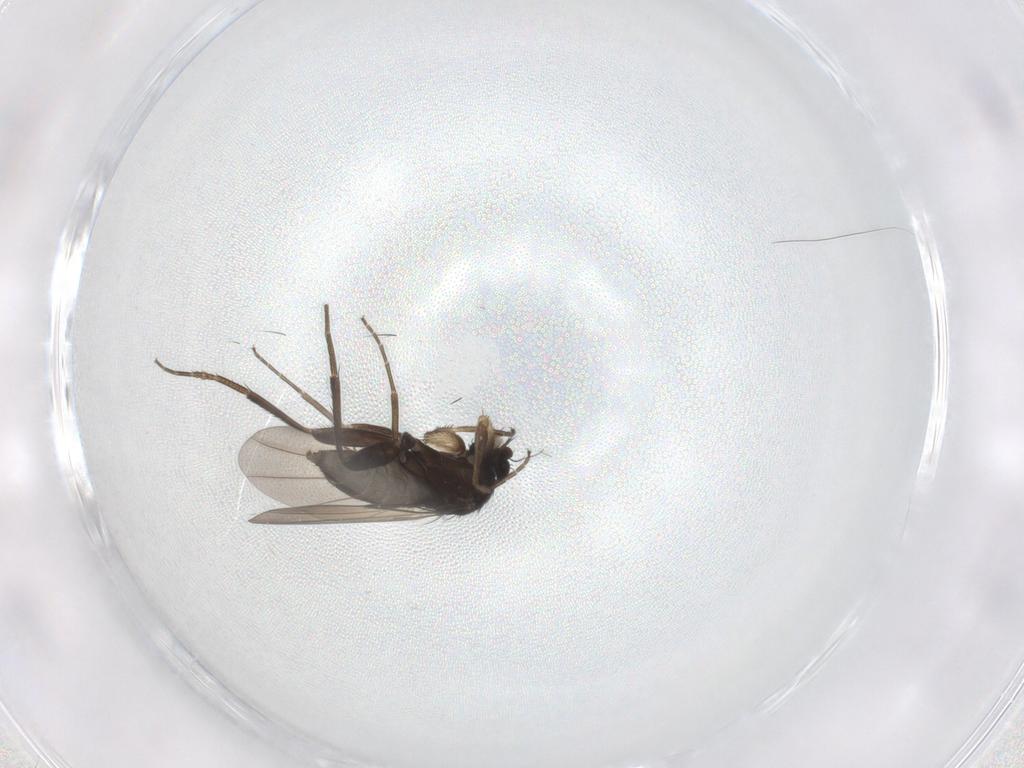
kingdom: Animalia
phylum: Arthropoda
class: Insecta
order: Diptera
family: Phoridae
